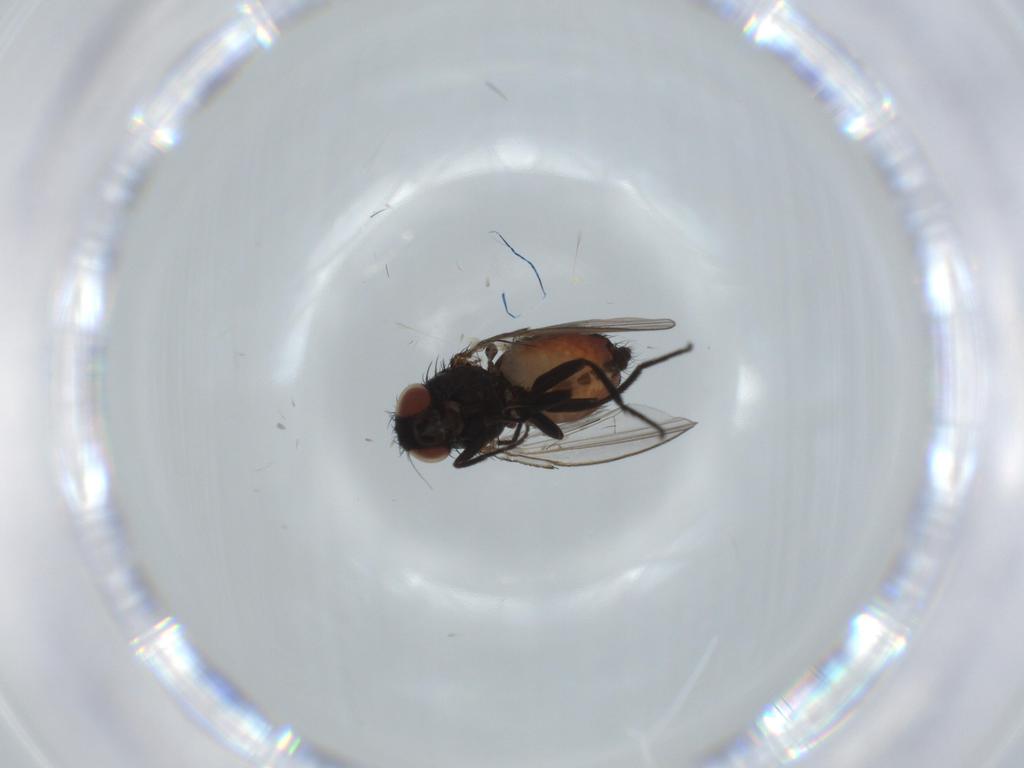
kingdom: Animalia
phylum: Arthropoda
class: Insecta
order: Diptera
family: Milichiidae
